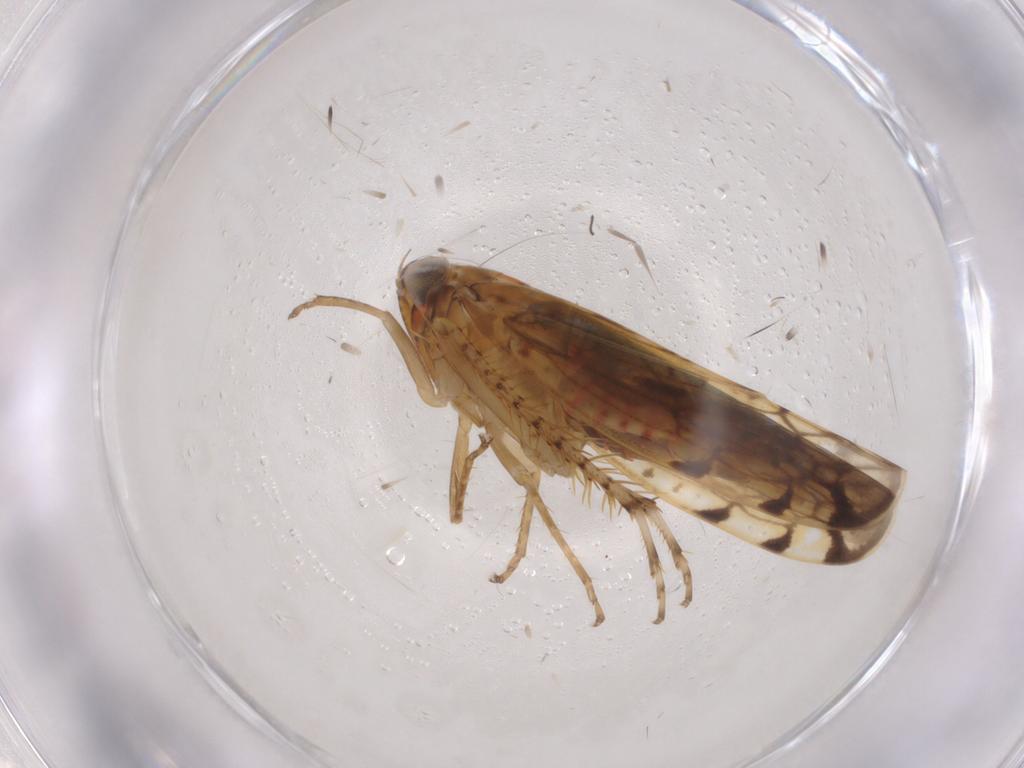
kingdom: Animalia
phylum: Arthropoda
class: Insecta
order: Hemiptera
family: Cicadellidae
